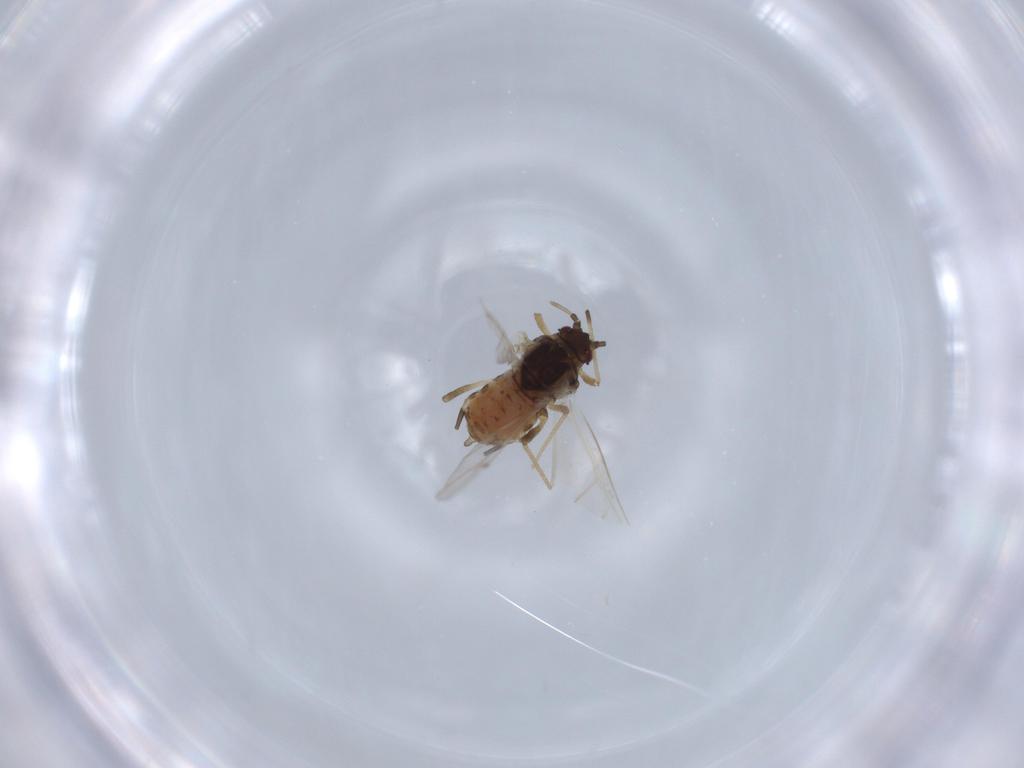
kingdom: Animalia
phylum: Arthropoda
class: Insecta
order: Hemiptera
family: Aphididae
